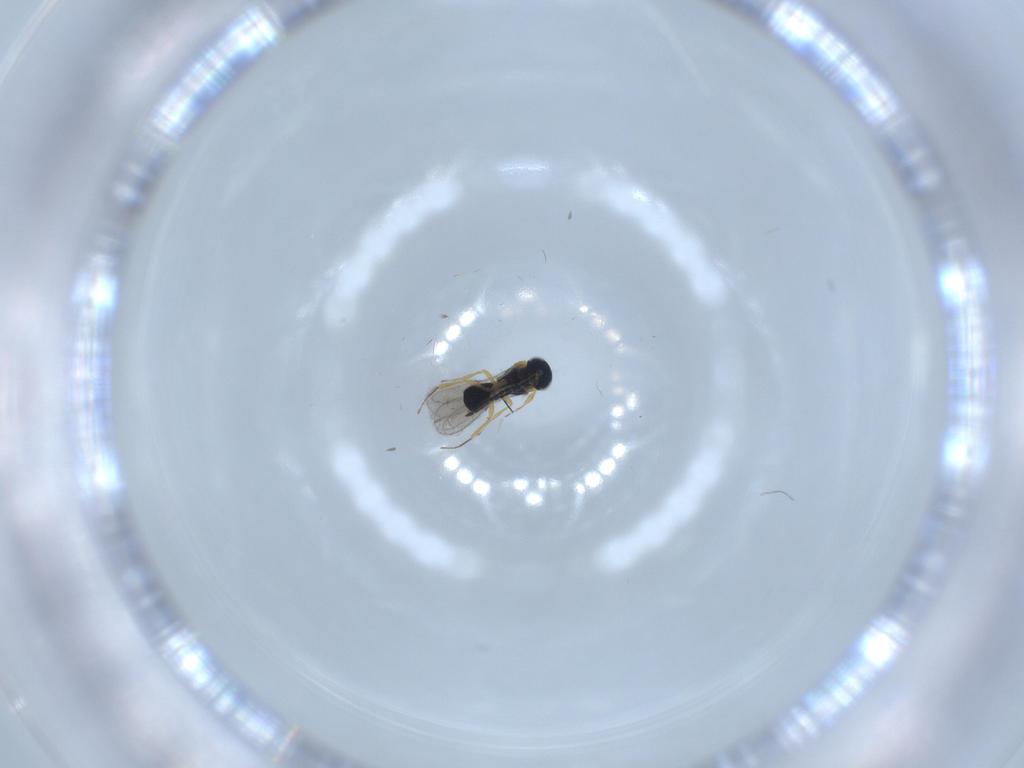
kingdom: Animalia
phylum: Arthropoda
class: Insecta
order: Hymenoptera
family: Scelionidae
